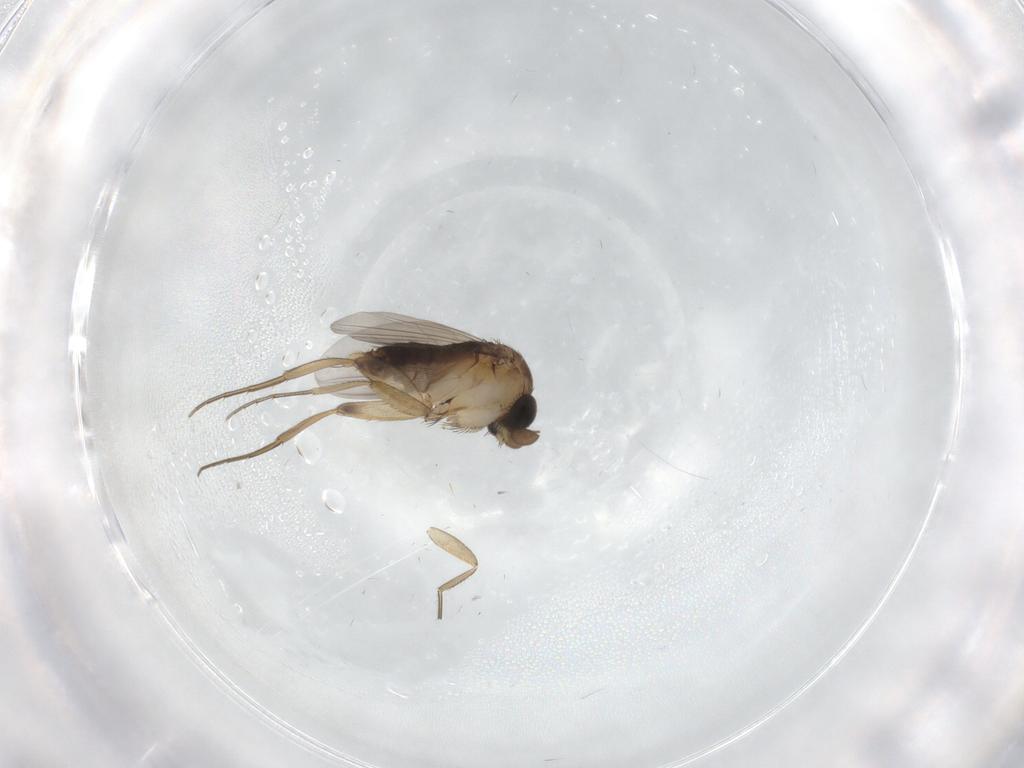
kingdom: Animalia
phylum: Arthropoda
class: Insecta
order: Diptera
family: Phoridae
